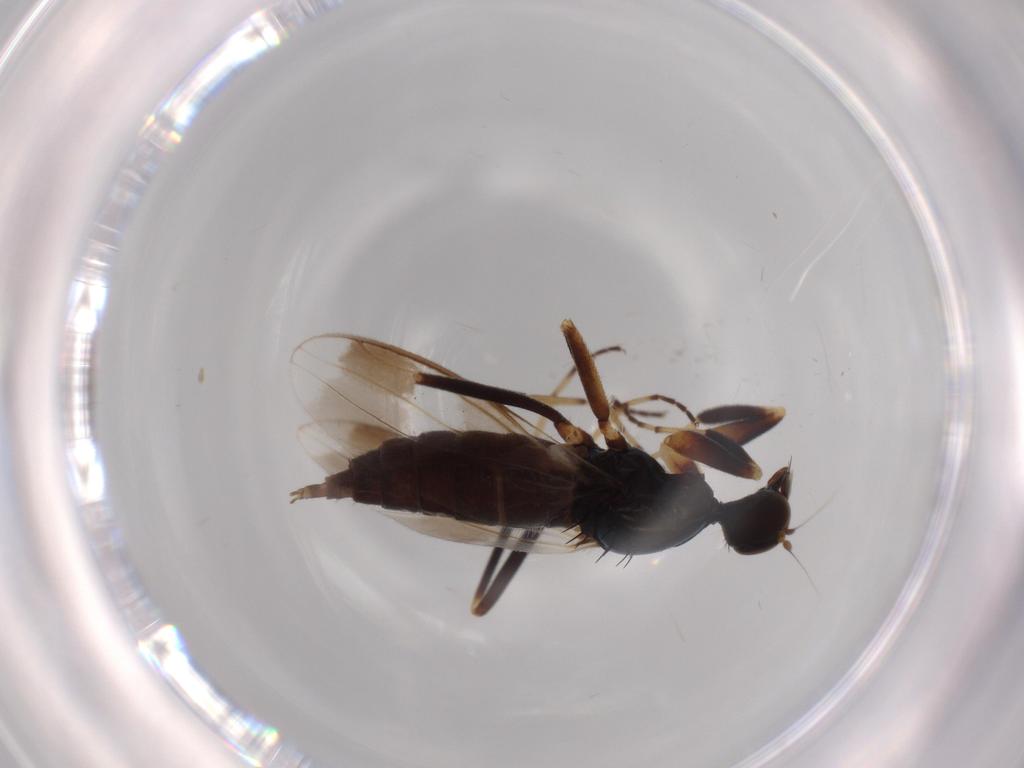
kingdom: Animalia
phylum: Arthropoda
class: Insecta
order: Diptera
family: Hybotidae
